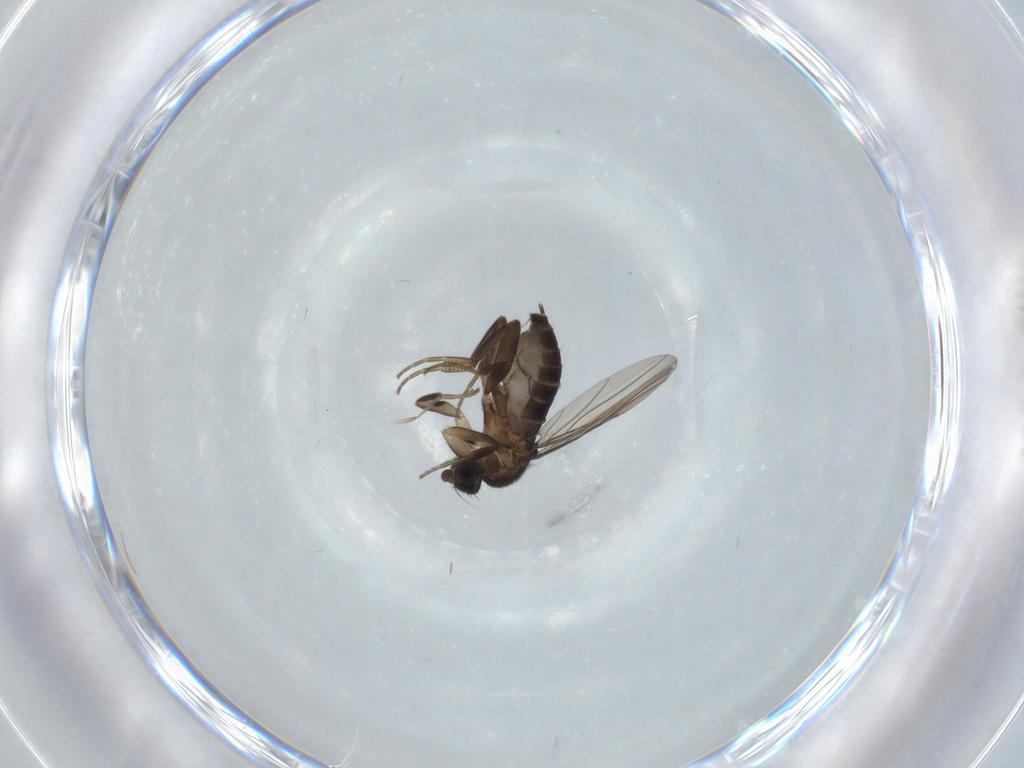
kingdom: Animalia
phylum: Arthropoda
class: Insecta
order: Diptera
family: Phoridae
